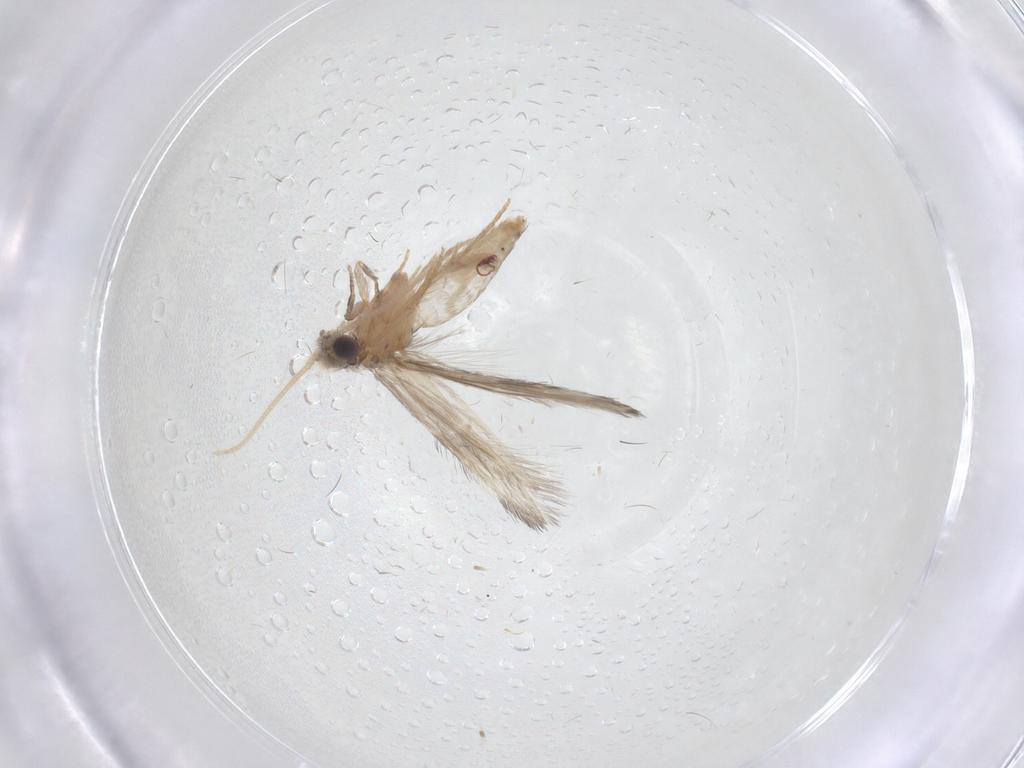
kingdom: Animalia
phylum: Arthropoda
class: Insecta
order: Trichoptera
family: Hydroptilidae
